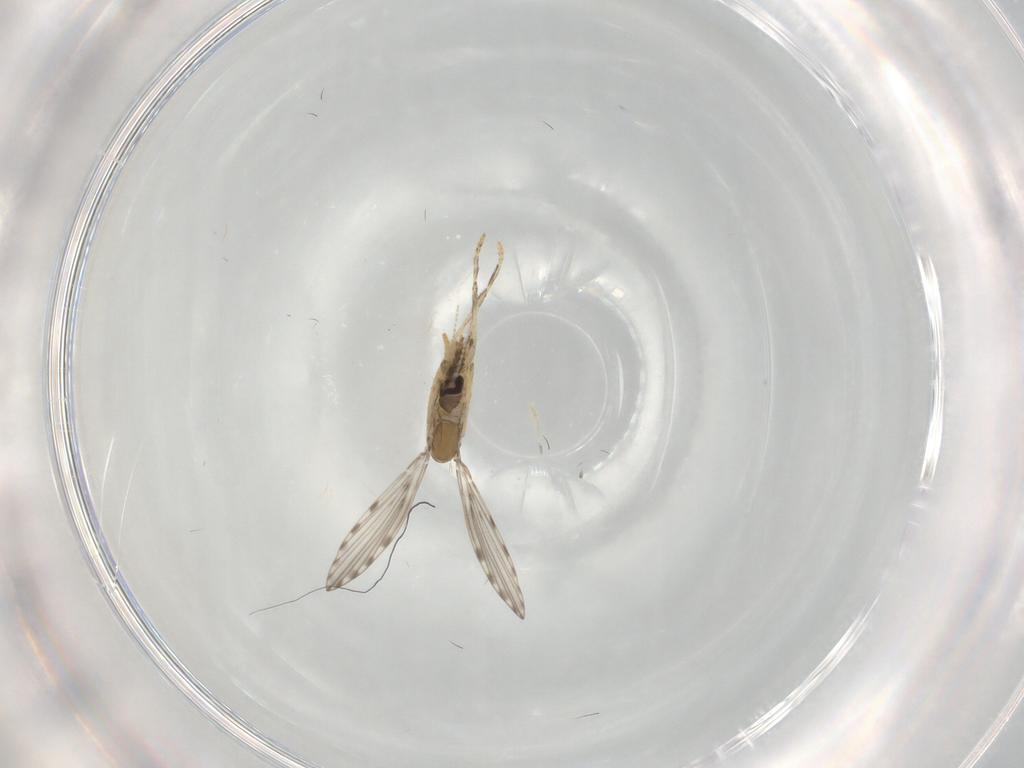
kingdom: Animalia
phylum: Arthropoda
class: Insecta
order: Diptera
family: Psychodidae
